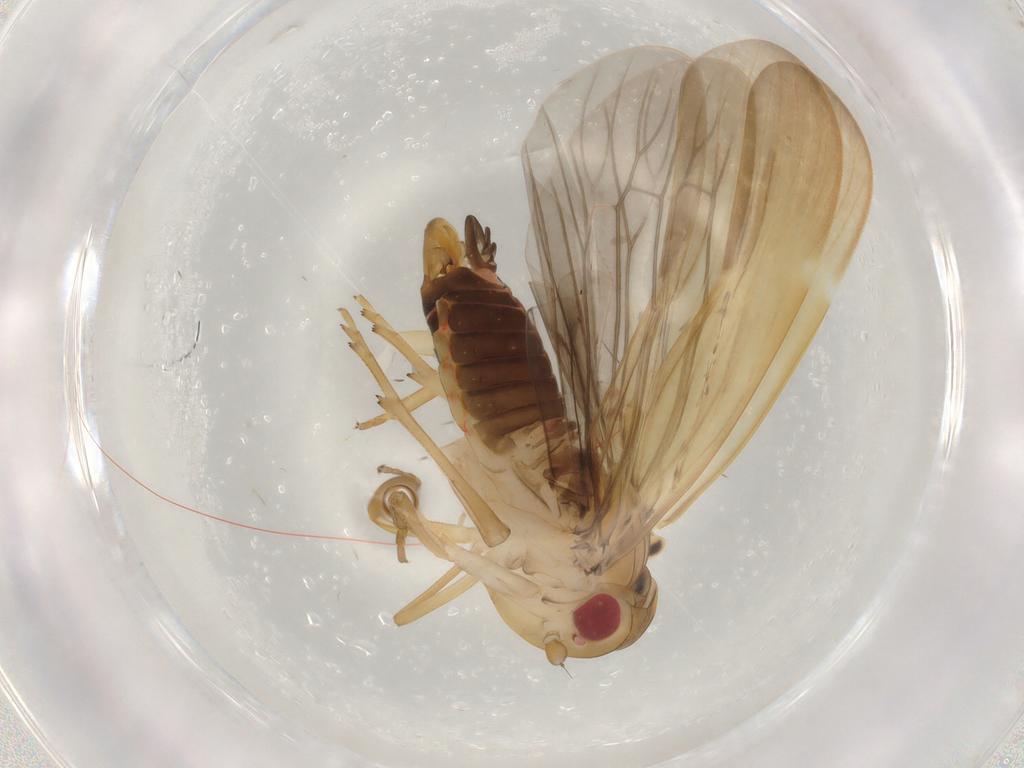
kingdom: Animalia
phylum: Arthropoda
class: Insecta
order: Hemiptera
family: Achilidae
